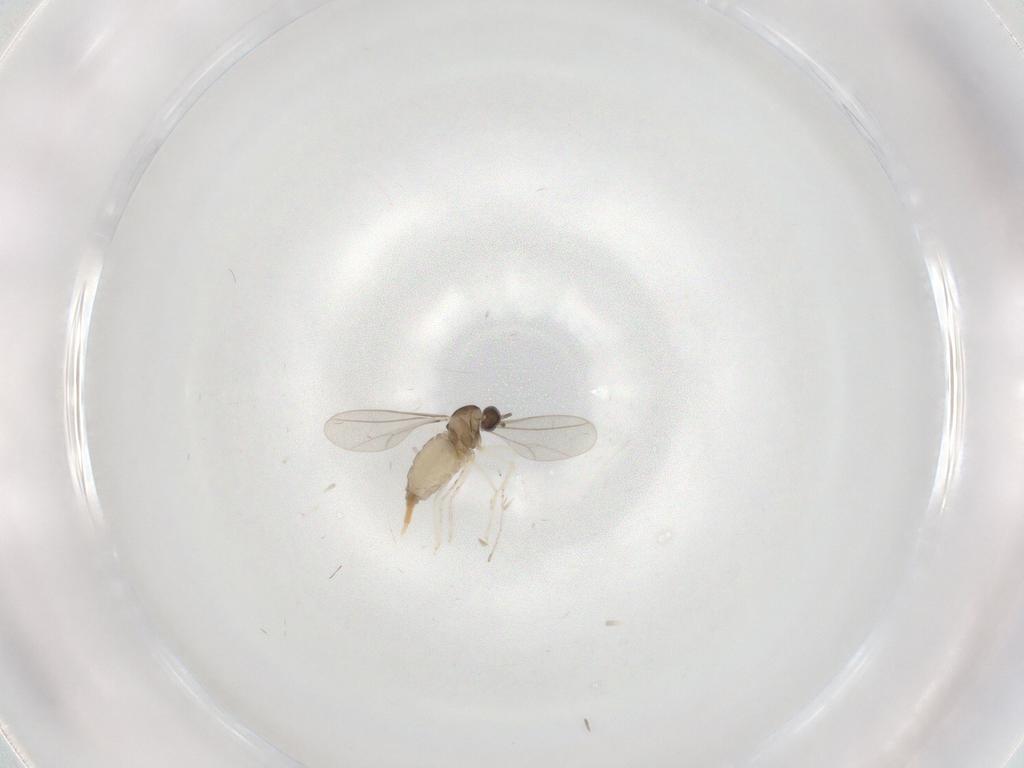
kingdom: Animalia
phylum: Arthropoda
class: Insecta
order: Diptera
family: Cecidomyiidae
